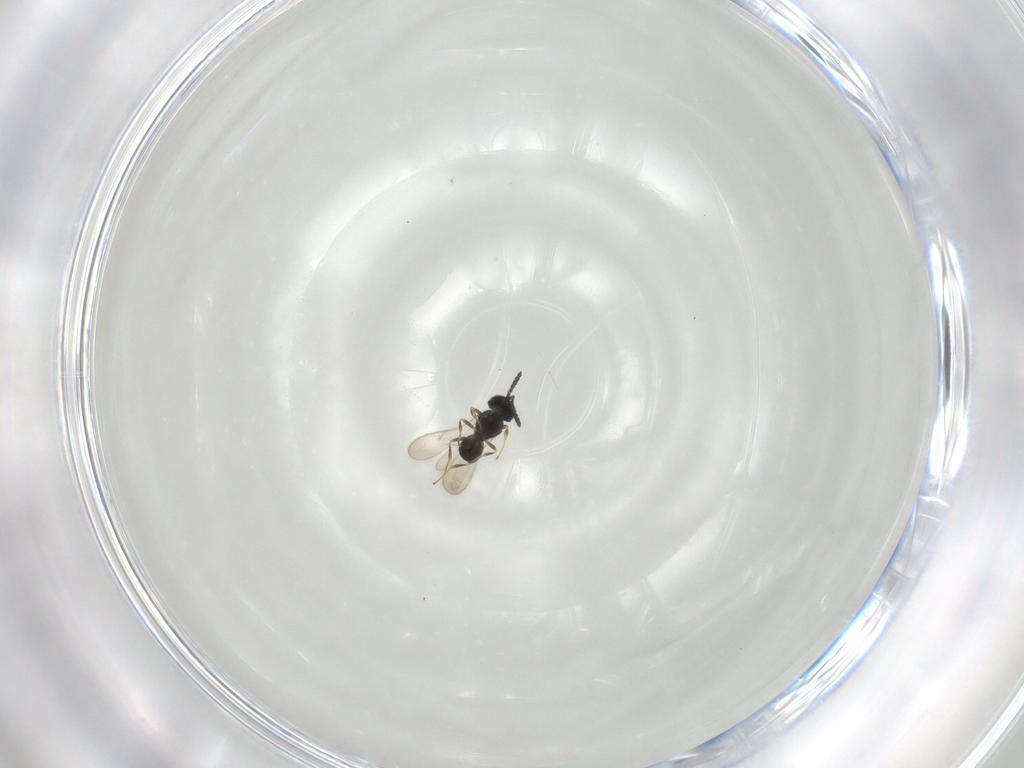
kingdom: Animalia
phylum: Arthropoda
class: Insecta
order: Hymenoptera
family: Scelionidae
